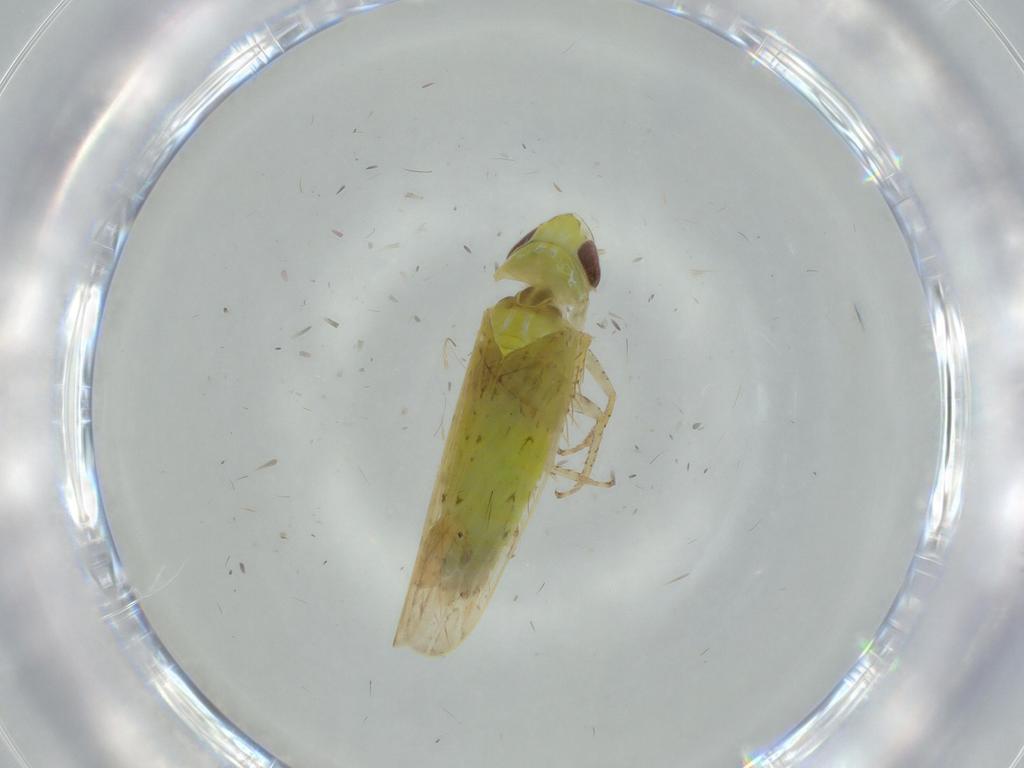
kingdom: Animalia
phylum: Arthropoda
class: Insecta
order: Hemiptera
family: Cicadellidae
